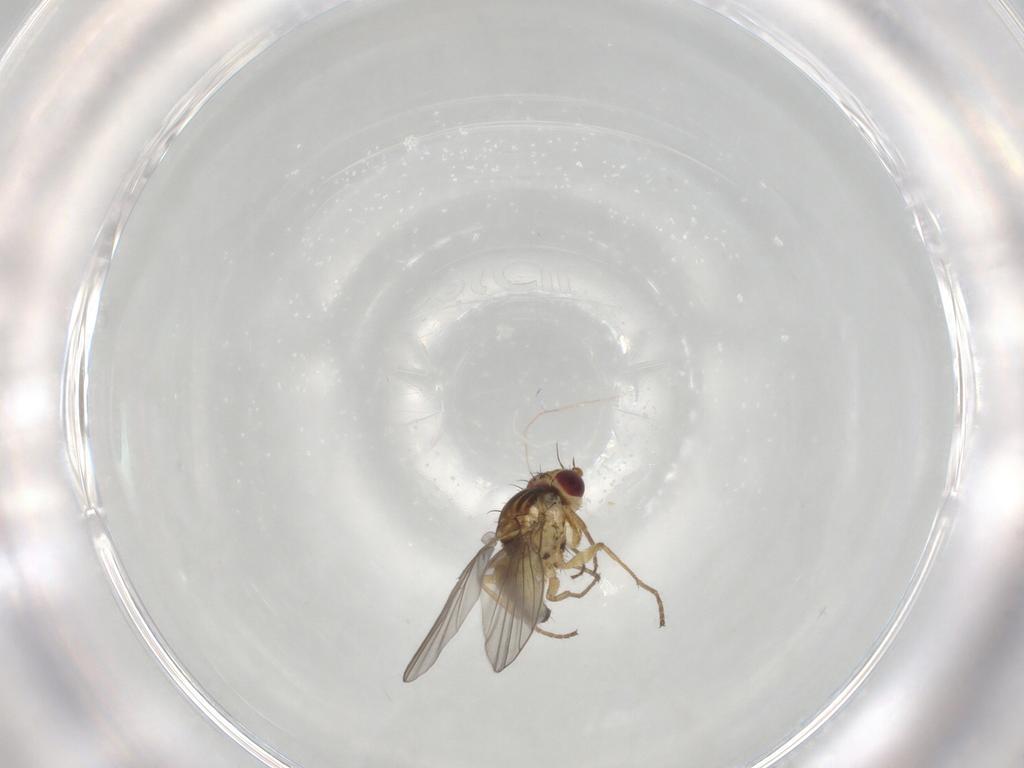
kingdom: Animalia
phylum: Arthropoda
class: Insecta
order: Diptera
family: Agromyzidae
